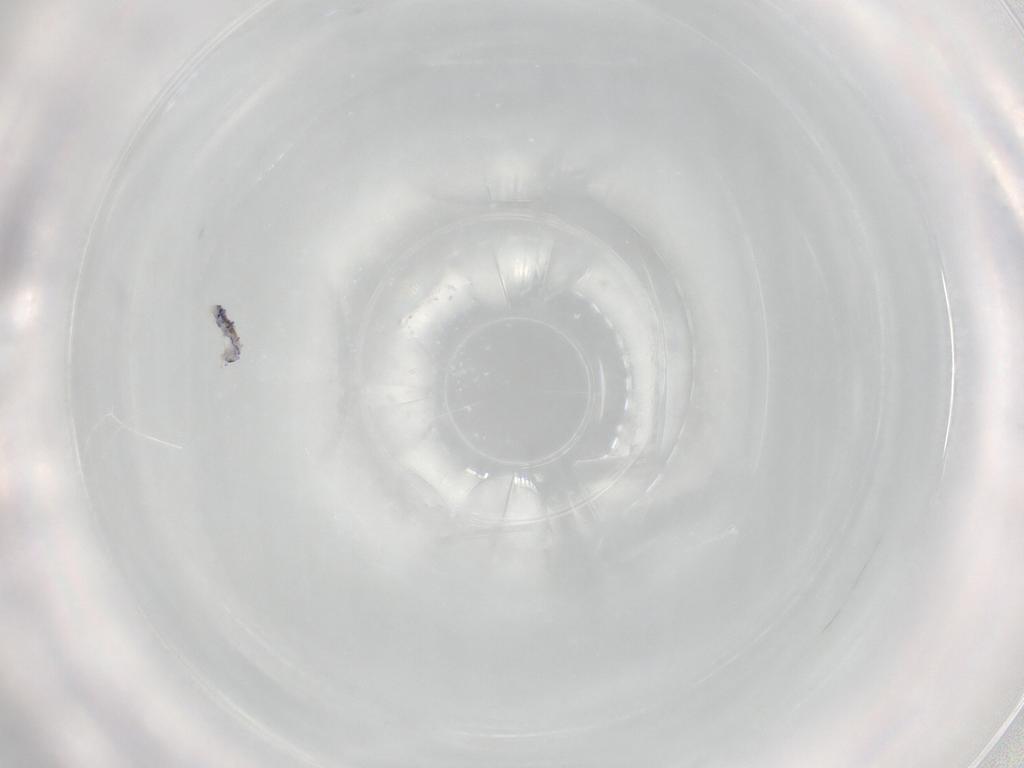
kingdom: Animalia
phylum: Arthropoda
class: Collembola
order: Entomobryomorpha
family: Entomobryidae
